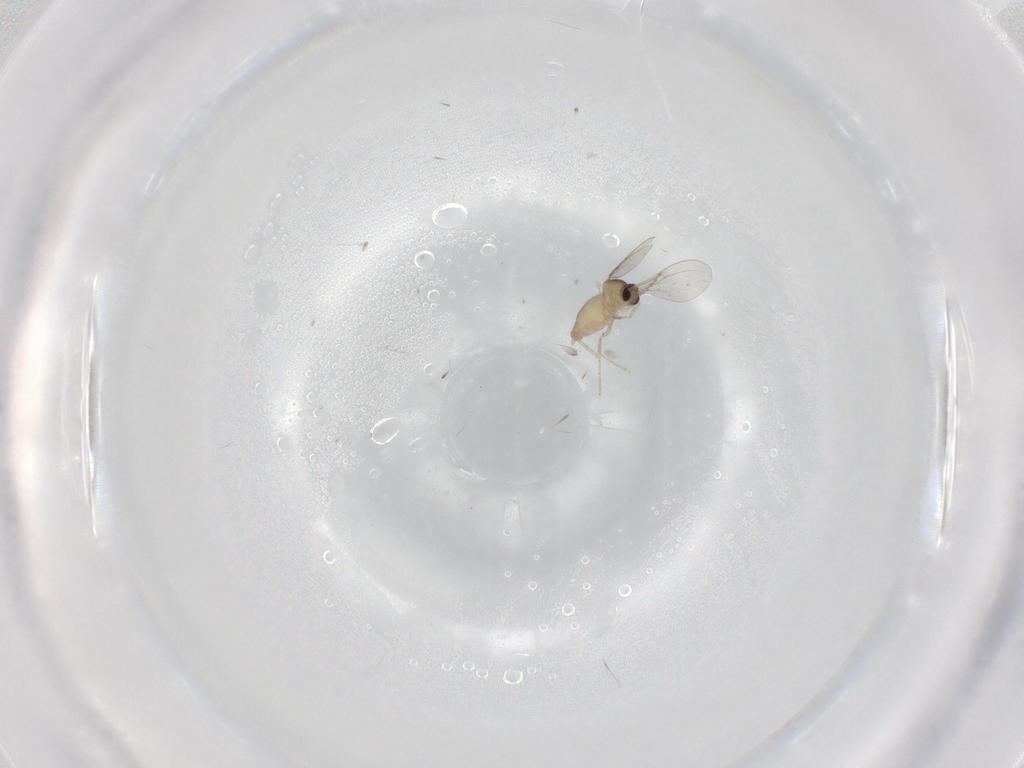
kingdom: Animalia
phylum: Arthropoda
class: Insecta
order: Diptera
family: Cecidomyiidae
